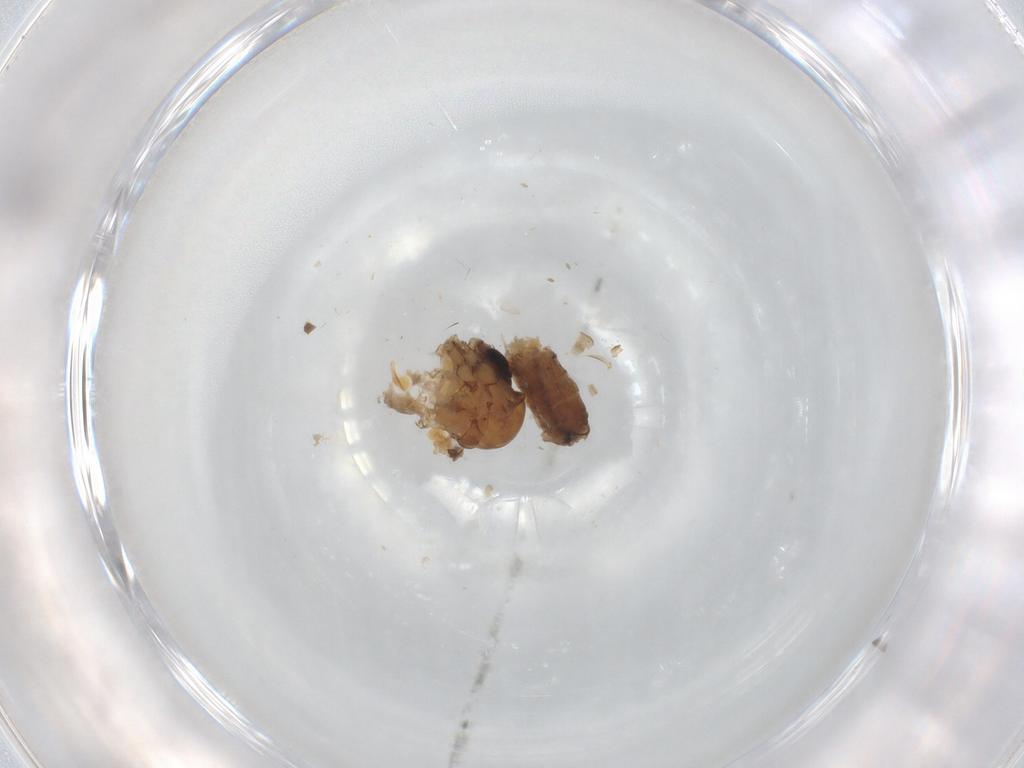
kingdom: Animalia
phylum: Arthropoda
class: Insecta
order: Diptera
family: Psychodidae
